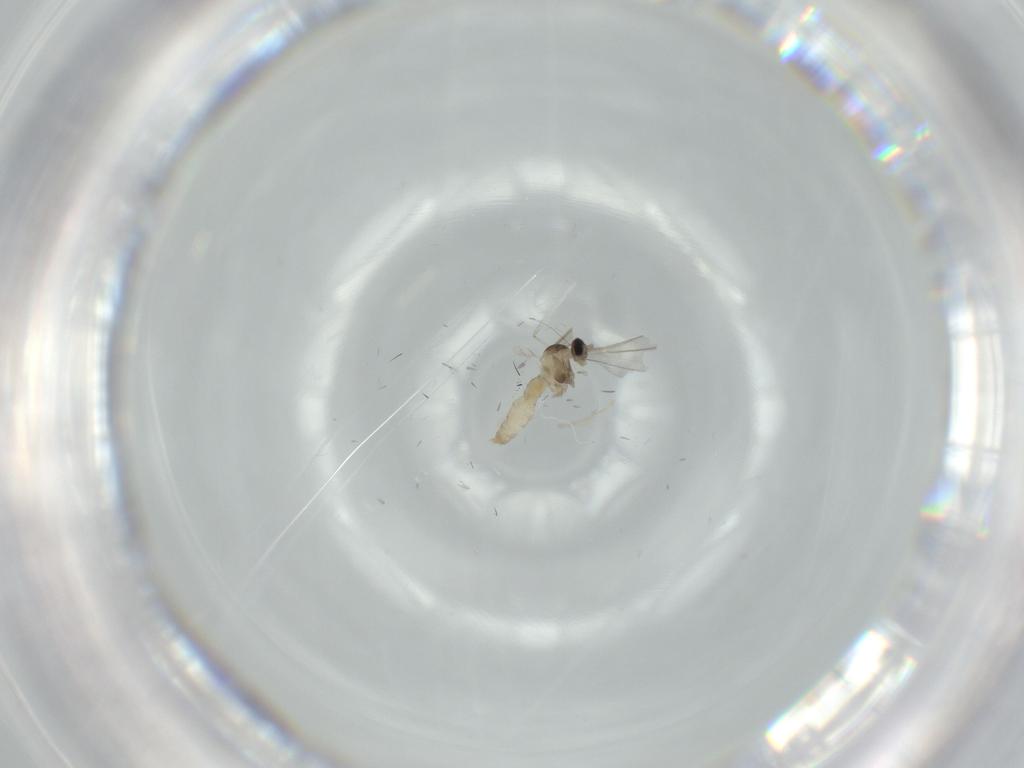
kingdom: Animalia
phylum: Arthropoda
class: Insecta
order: Diptera
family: Cecidomyiidae
